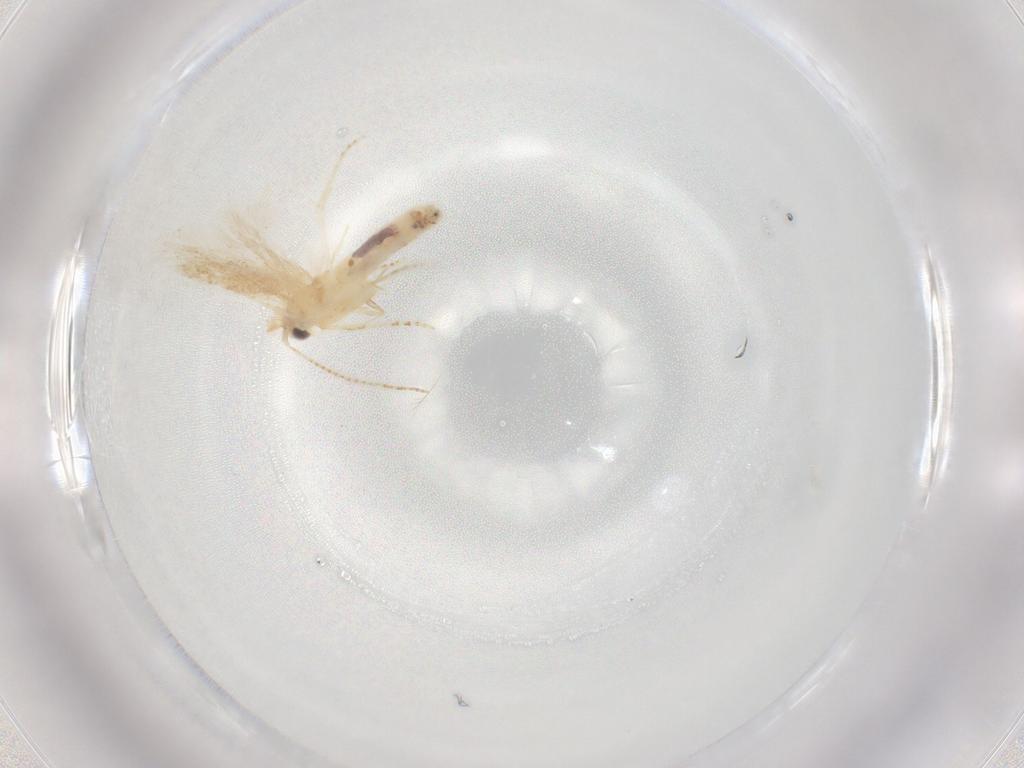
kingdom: Animalia
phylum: Arthropoda
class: Insecta
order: Lepidoptera
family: Depressariidae
